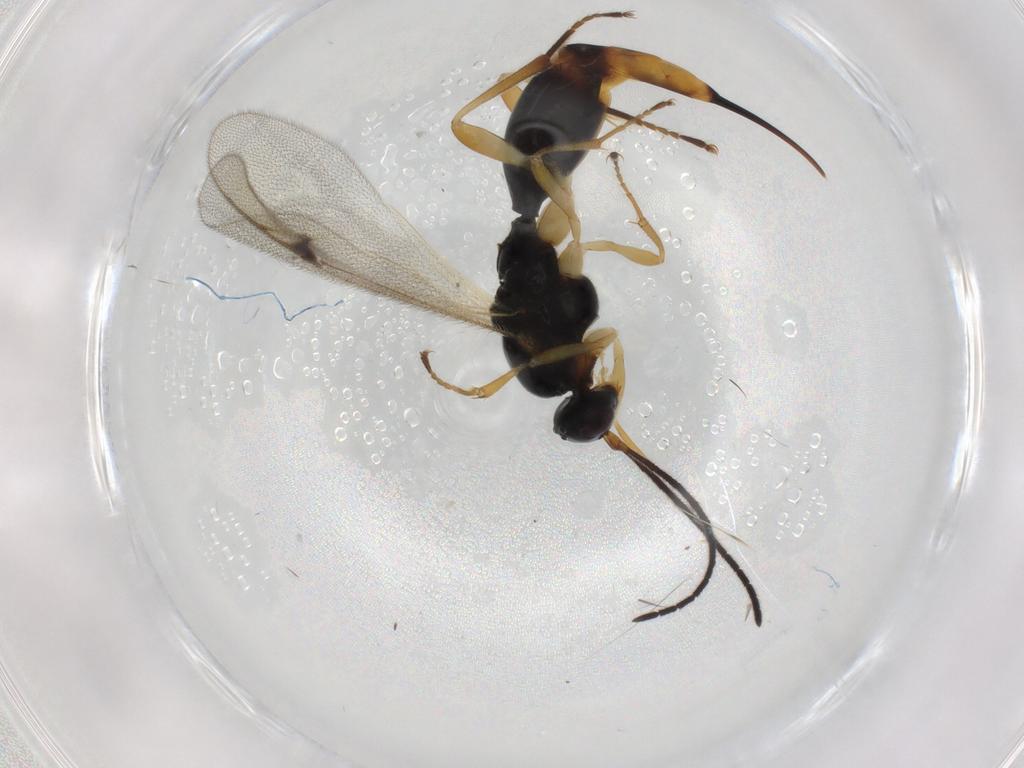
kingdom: Animalia
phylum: Arthropoda
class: Insecta
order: Hymenoptera
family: Proctotrupidae
